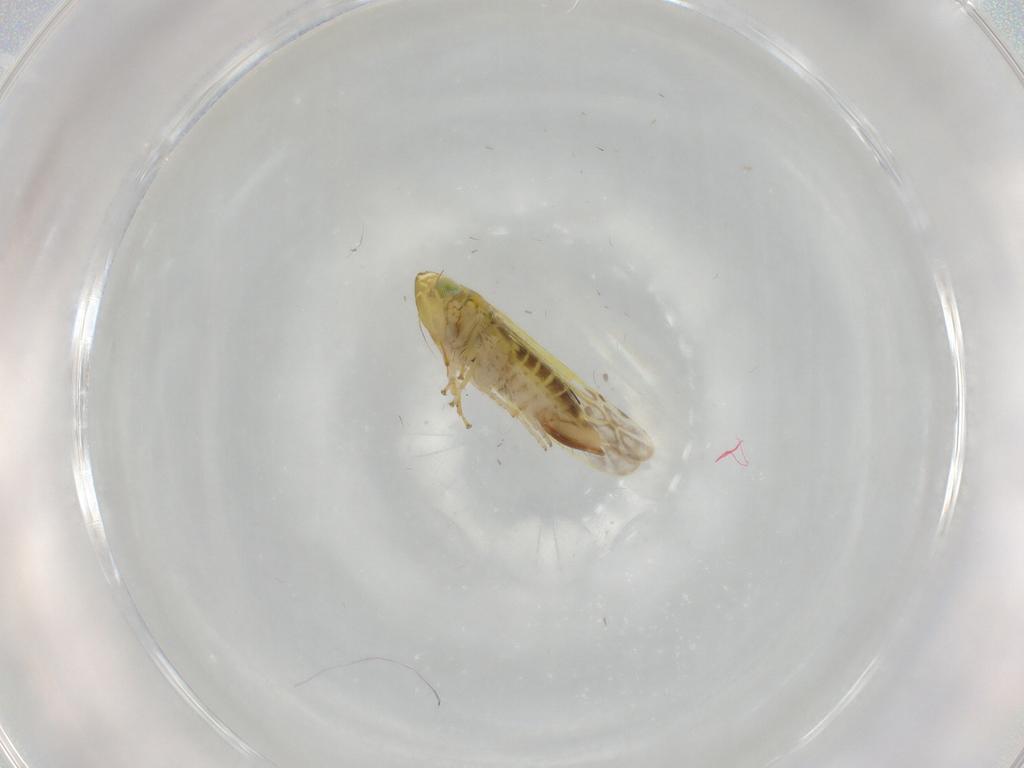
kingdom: Animalia
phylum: Arthropoda
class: Insecta
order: Hemiptera
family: Cicadellidae
